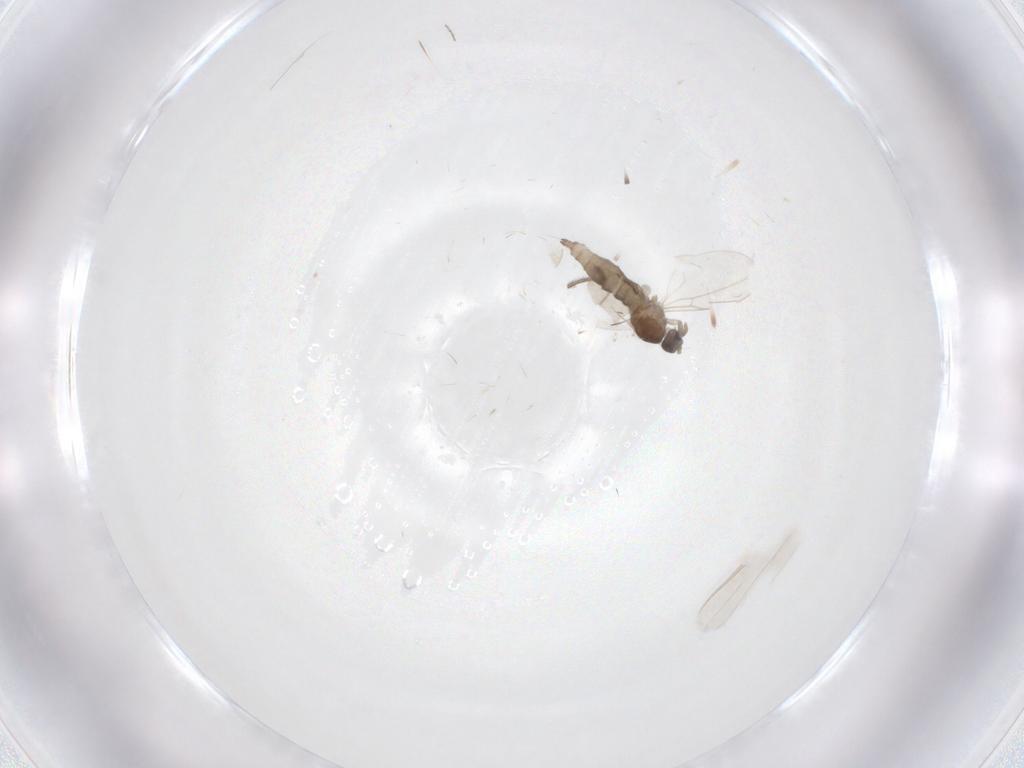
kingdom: Animalia
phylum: Arthropoda
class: Insecta
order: Diptera
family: Cecidomyiidae
